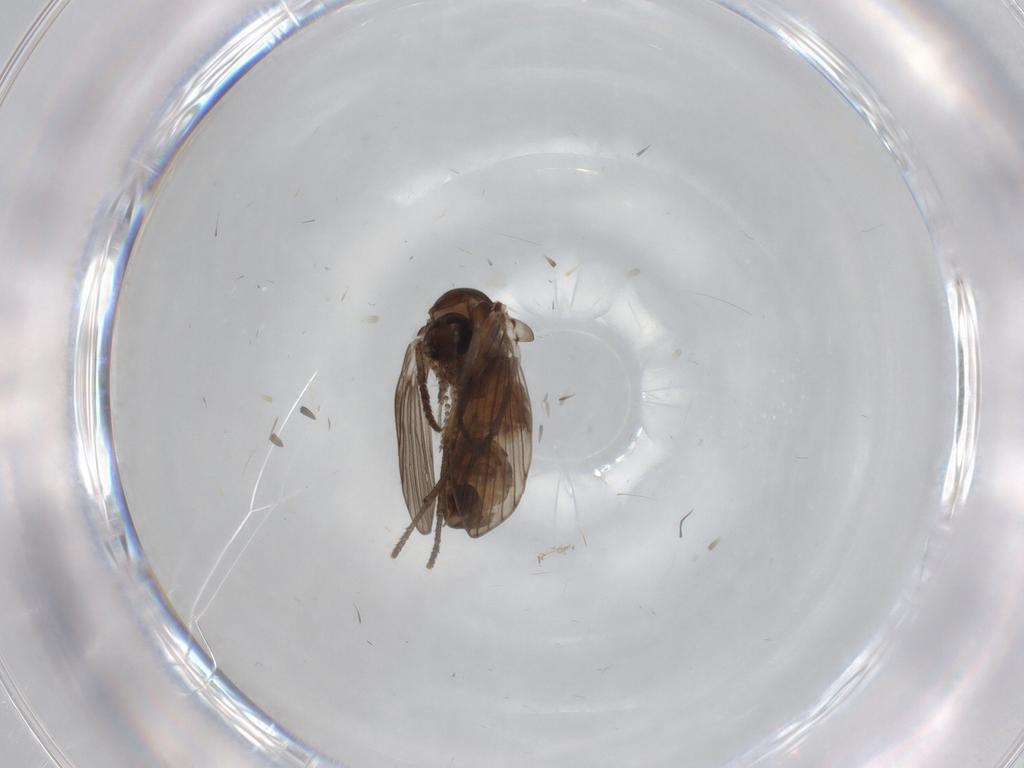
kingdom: Animalia
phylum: Arthropoda
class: Insecta
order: Diptera
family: Psychodidae
